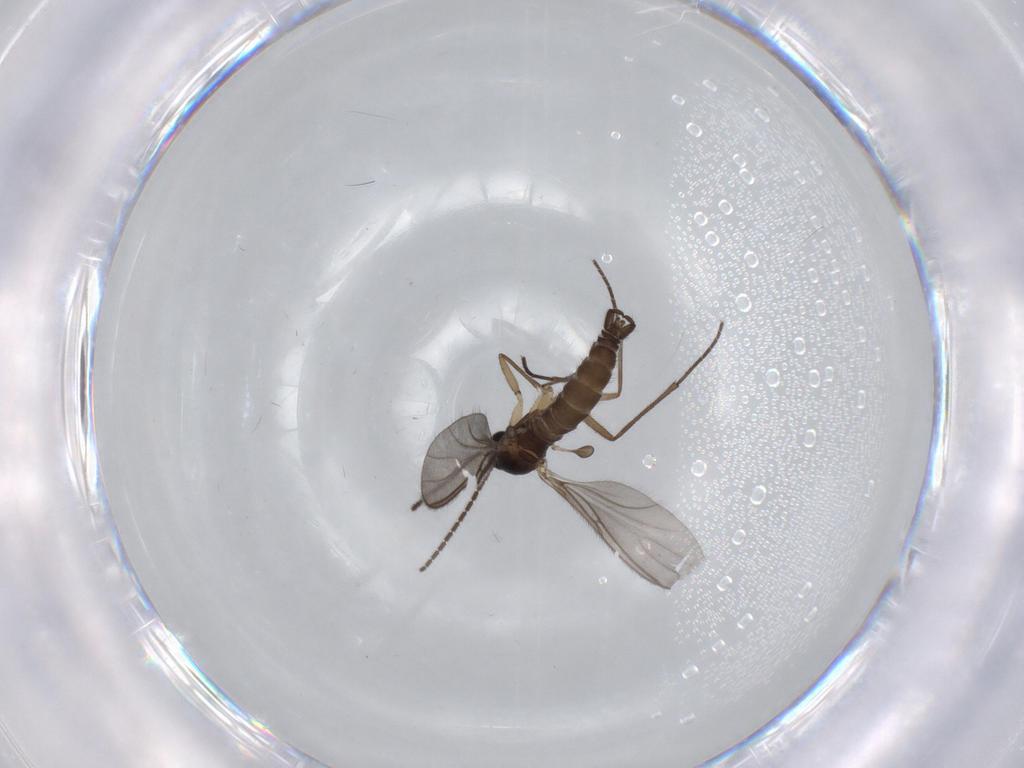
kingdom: Animalia
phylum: Arthropoda
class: Insecta
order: Diptera
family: Sciaridae
